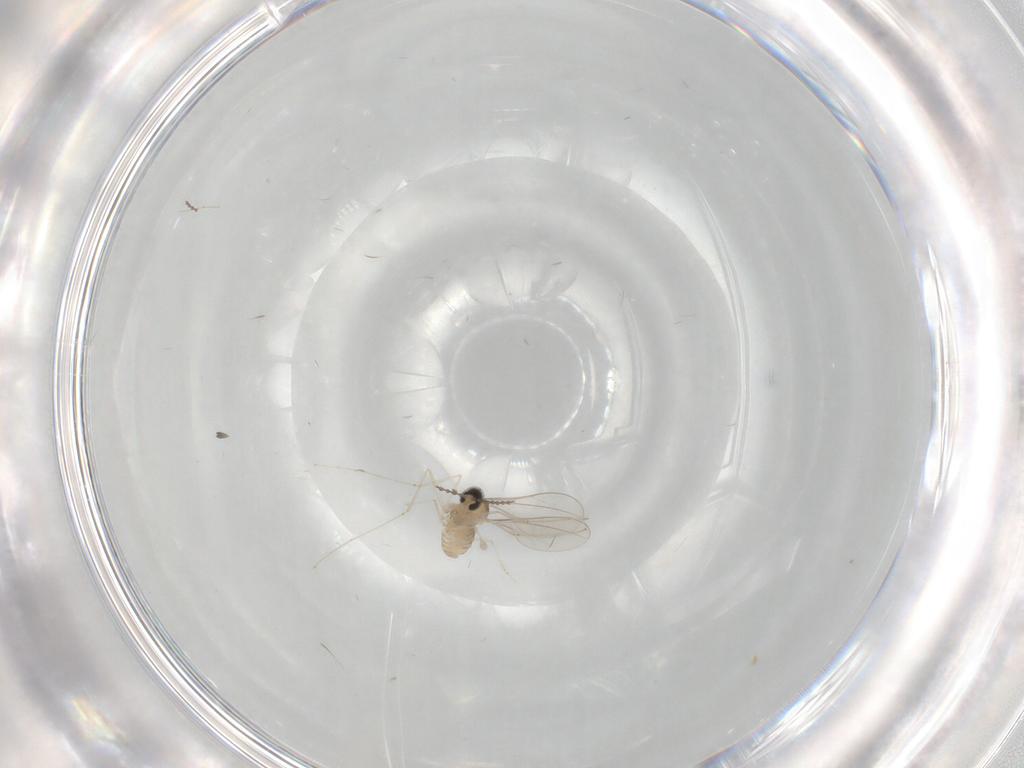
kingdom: Animalia
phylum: Arthropoda
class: Insecta
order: Diptera
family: Cecidomyiidae
